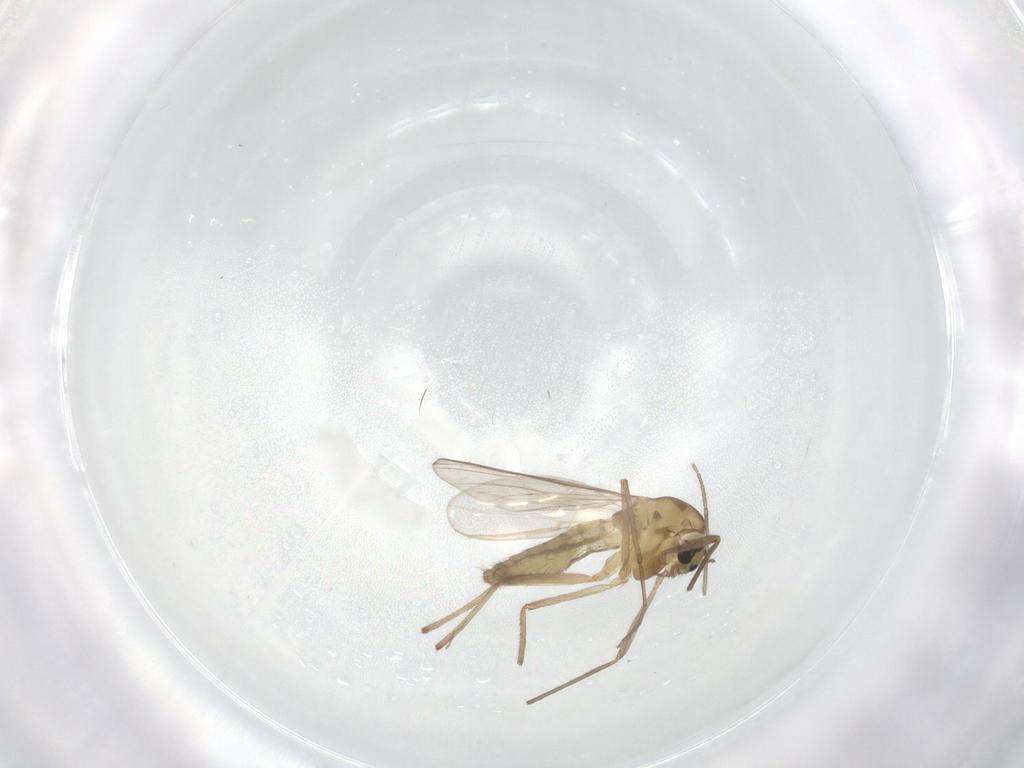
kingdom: Animalia
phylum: Arthropoda
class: Insecta
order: Diptera
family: Chironomidae
